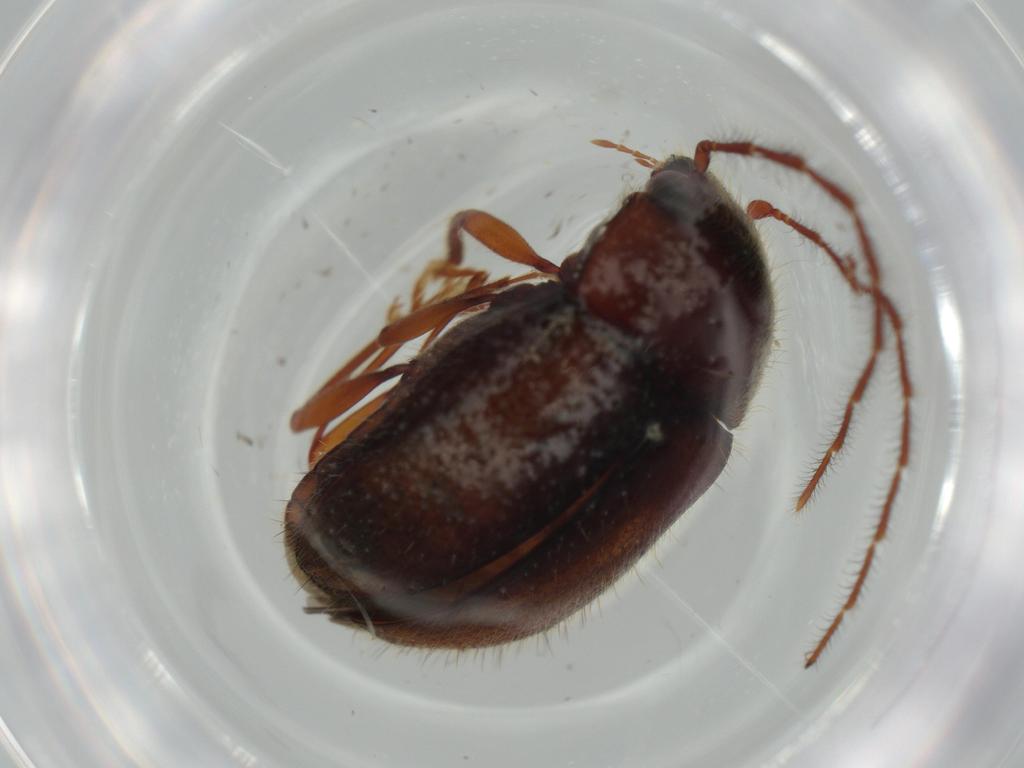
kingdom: Animalia
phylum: Arthropoda
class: Insecta
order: Coleoptera
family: Artematopodidae
